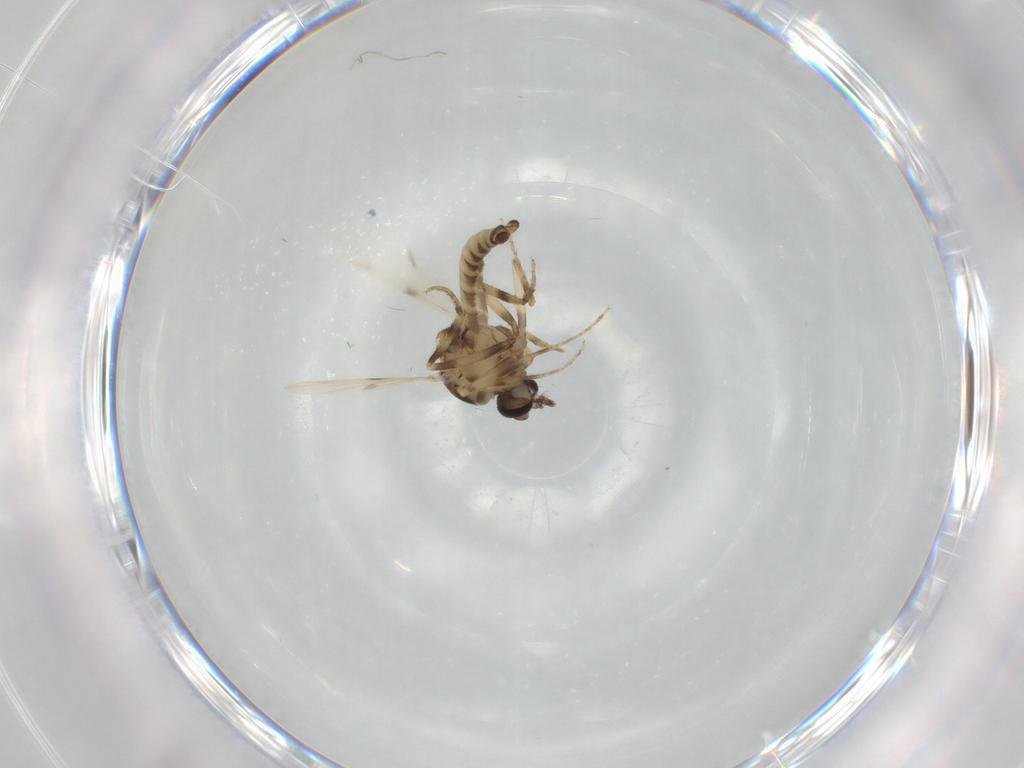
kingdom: Animalia
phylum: Arthropoda
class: Insecta
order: Diptera
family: Ceratopogonidae
